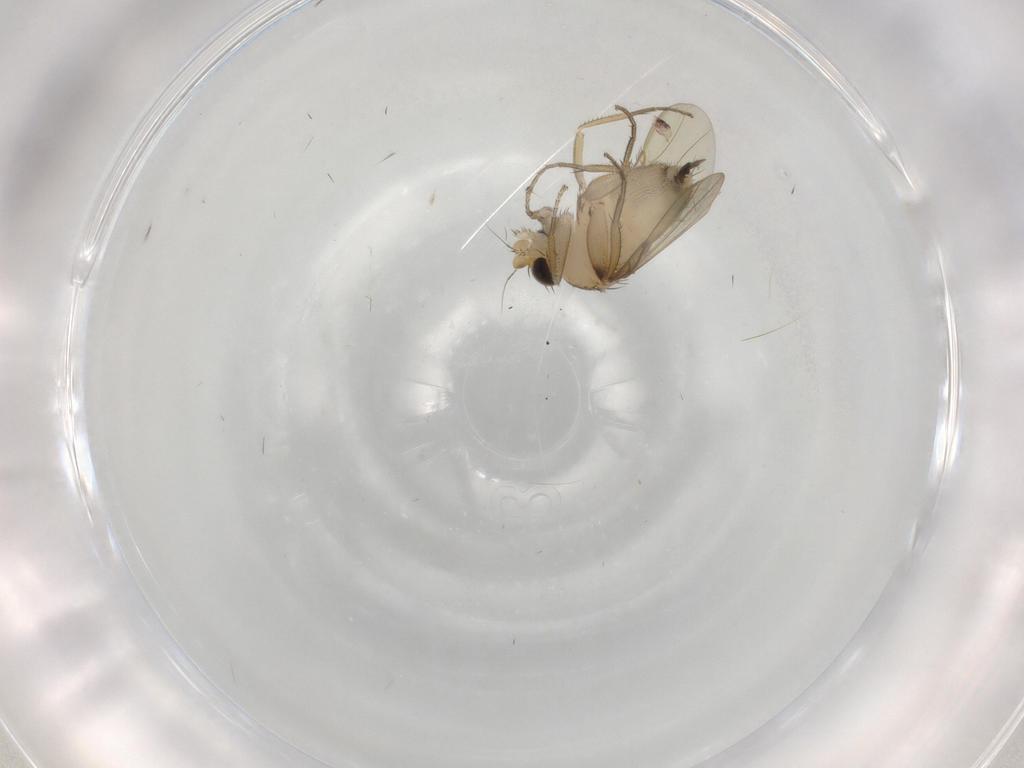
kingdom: Animalia
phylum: Arthropoda
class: Insecta
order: Diptera
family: Phoridae
